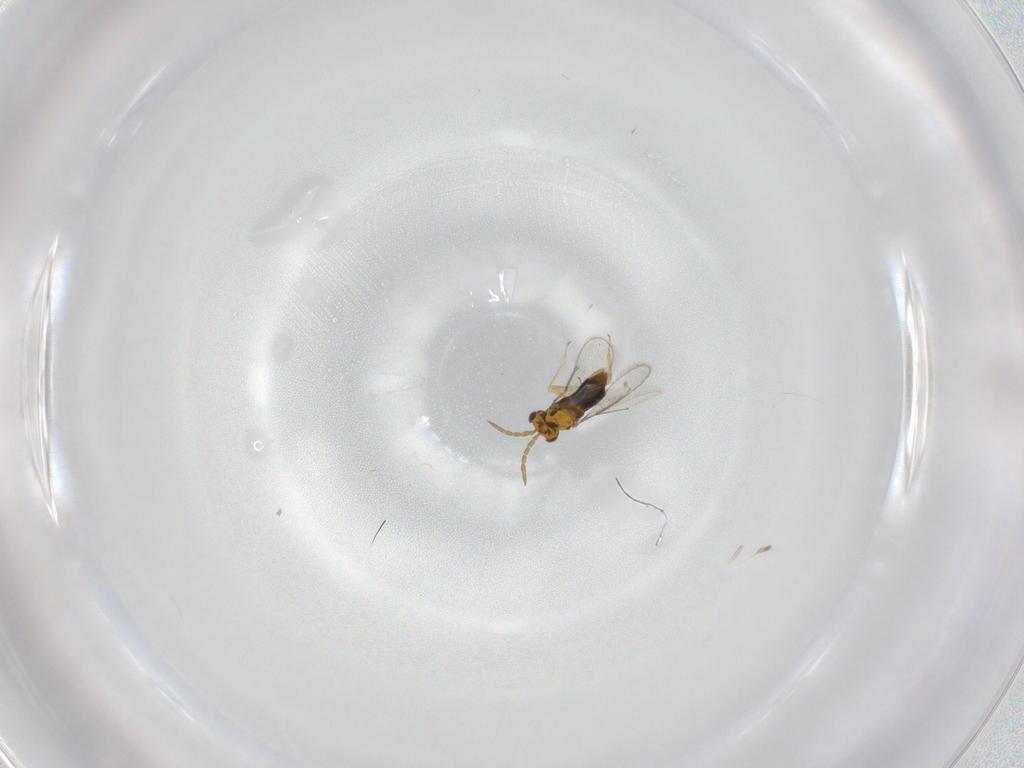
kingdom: Animalia
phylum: Arthropoda
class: Insecta
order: Hymenoptera
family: Aphelinidae
